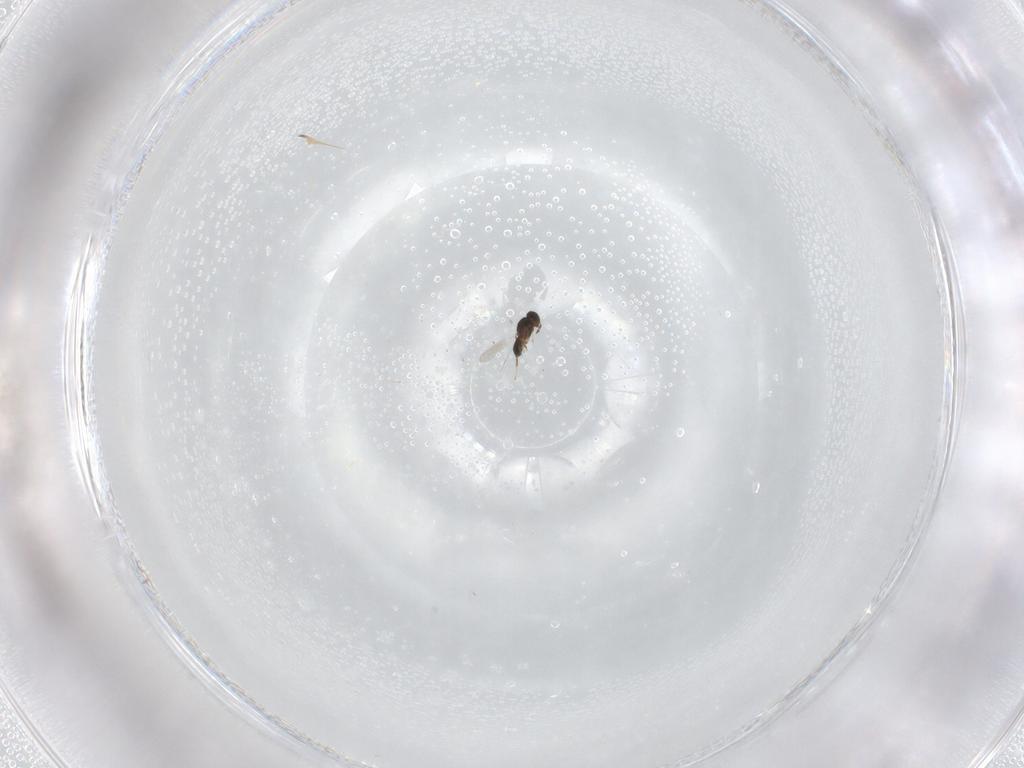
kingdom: Animalia
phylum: Arthropoda
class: Insecta
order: Hymenoptera
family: Platygastridae
